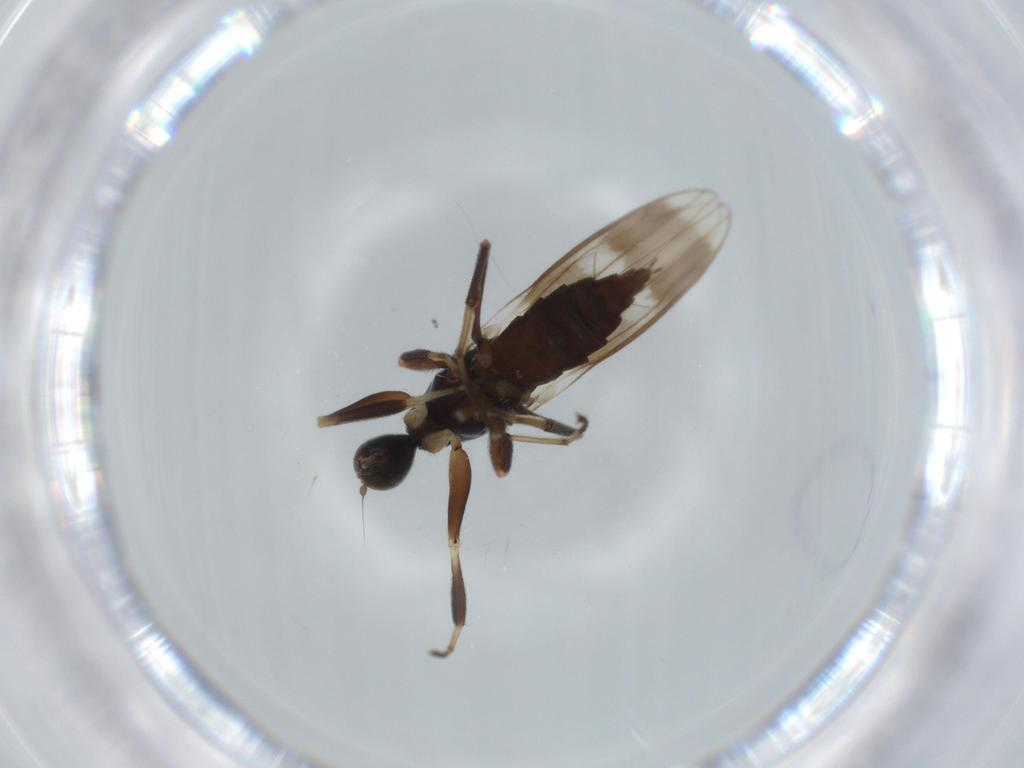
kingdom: Animalia
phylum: Arthropoda
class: Insecta
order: Diptera
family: Hybotidae
